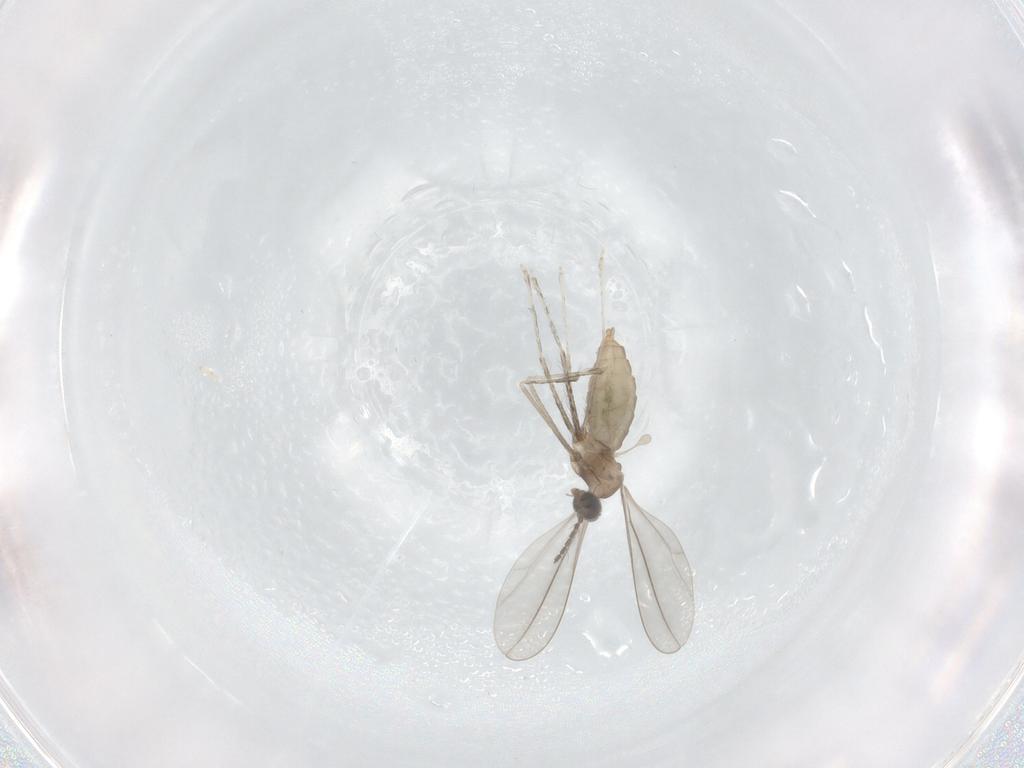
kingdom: Animalia
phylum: Arthropoda
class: Insecta
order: Diptera
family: Cecidomyiidae
